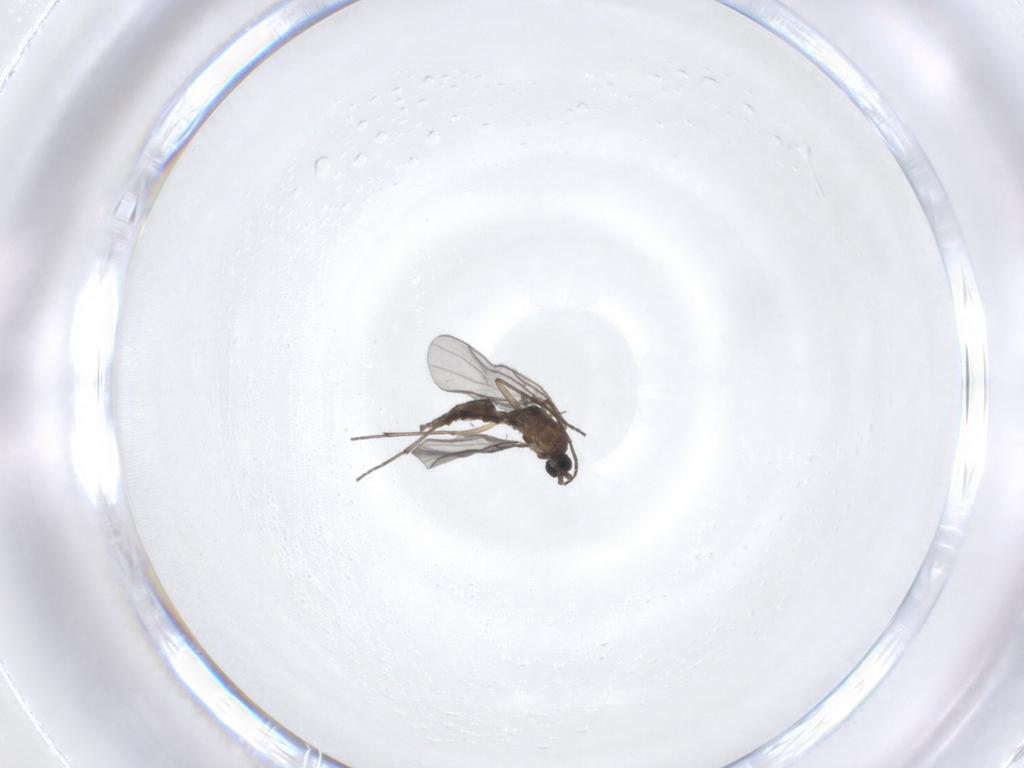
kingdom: Animalia
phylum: Arthropoda
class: Insecta
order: Diptera
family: Sciaridae
